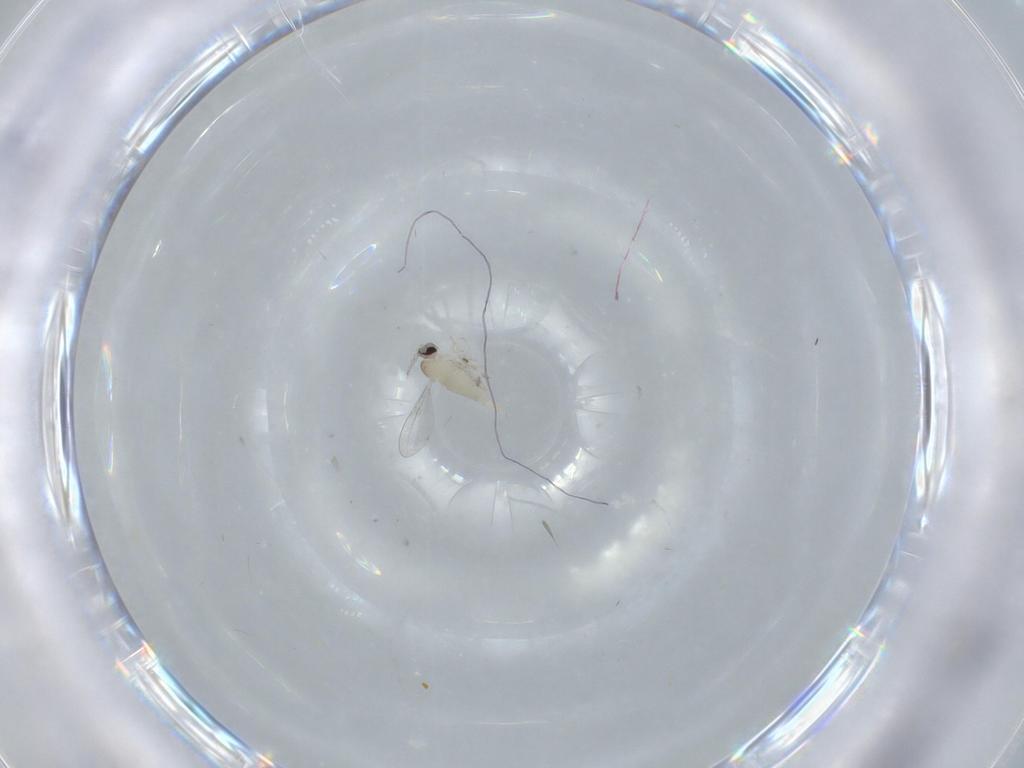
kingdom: Animalia
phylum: Arthropoda
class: Insecta
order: Diptera
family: Cecidomyiidae
